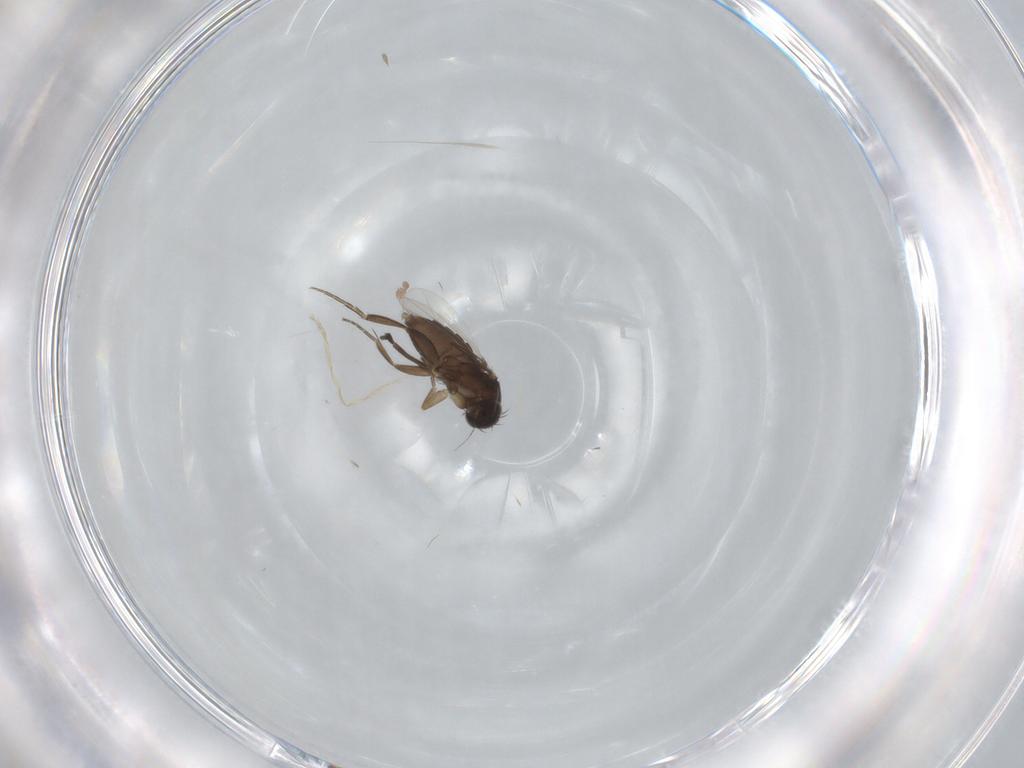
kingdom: Animalia
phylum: Arthropoda
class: Insecta
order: Diptera
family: Phoridae
